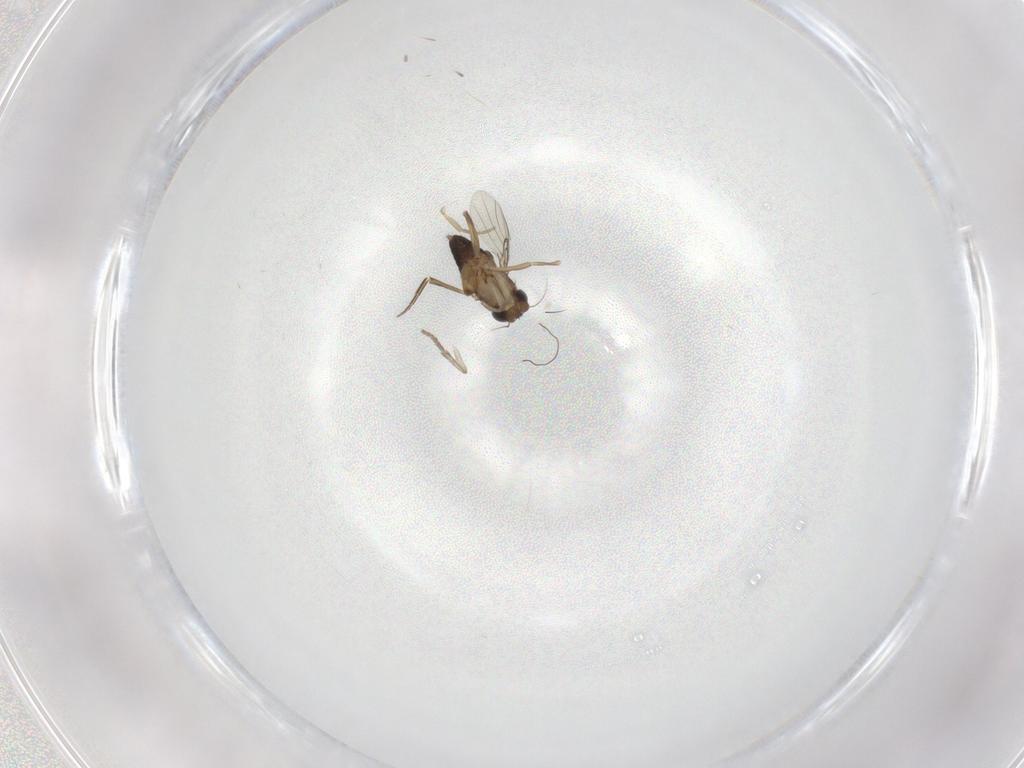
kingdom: Animalia
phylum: Arthropoda
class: Insecta
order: Diptera
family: Psychodidae
